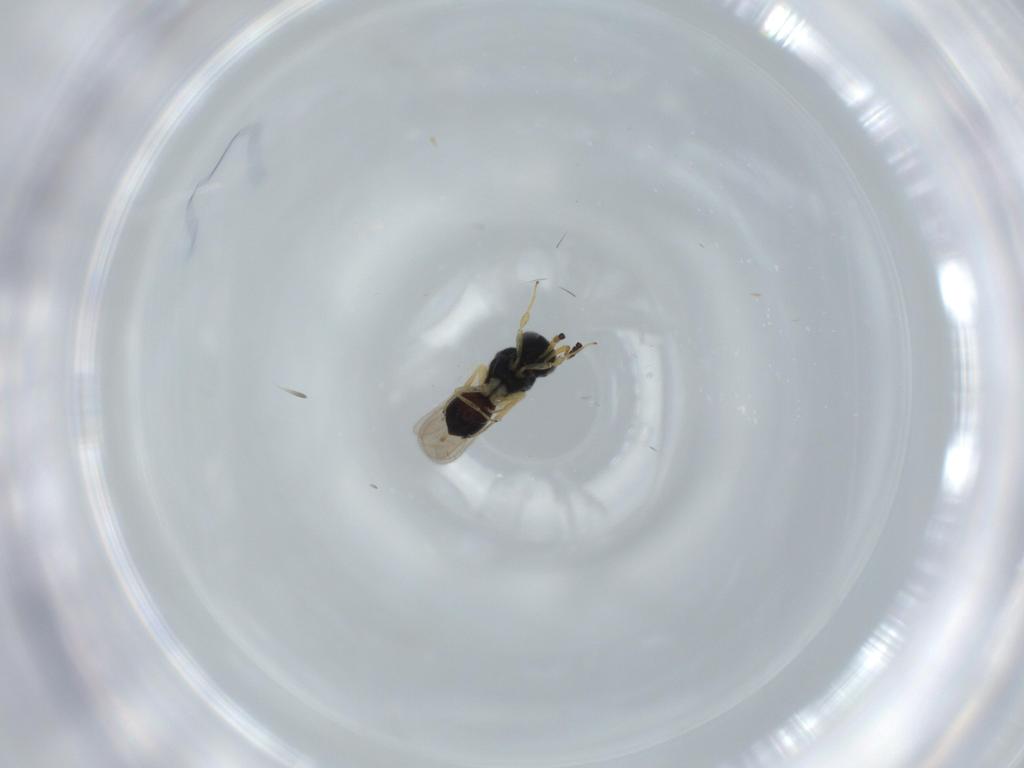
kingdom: Animalia
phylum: Arthropoda
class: Insecta
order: Hymenoptera
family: Scelionidae
